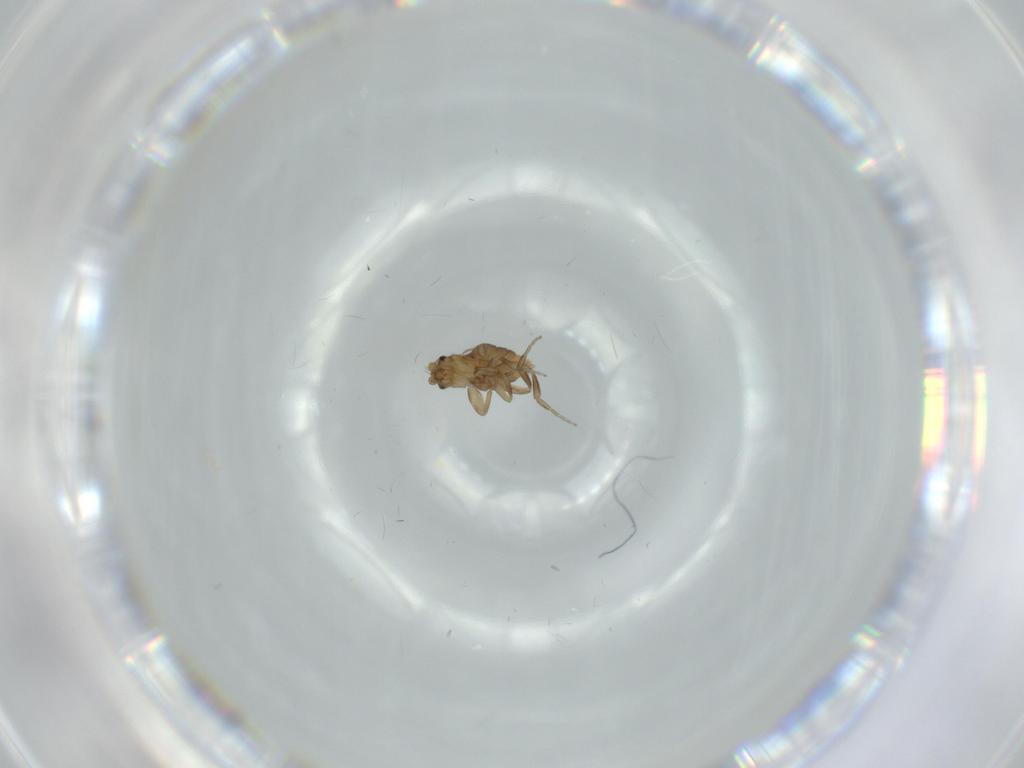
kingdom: Animalia
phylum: Arthropoda
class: Insecta
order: Diptera
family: Phoridae
